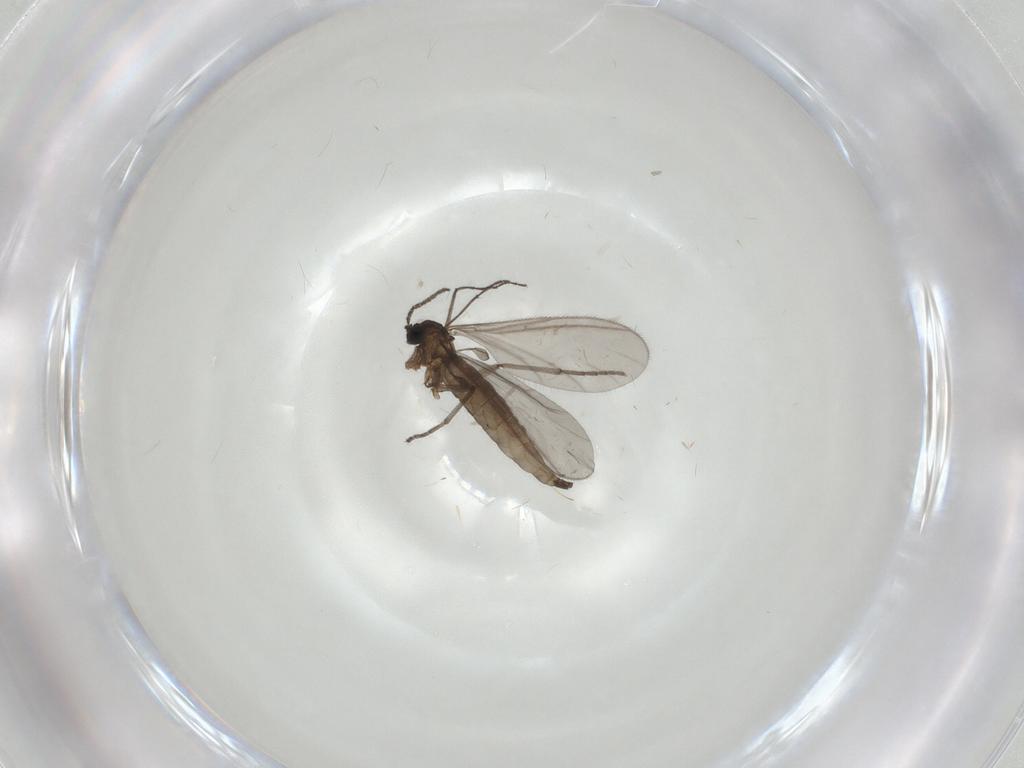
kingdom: Animalia
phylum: Arthropoda
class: Insecta
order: Diptera
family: Sciaridae
